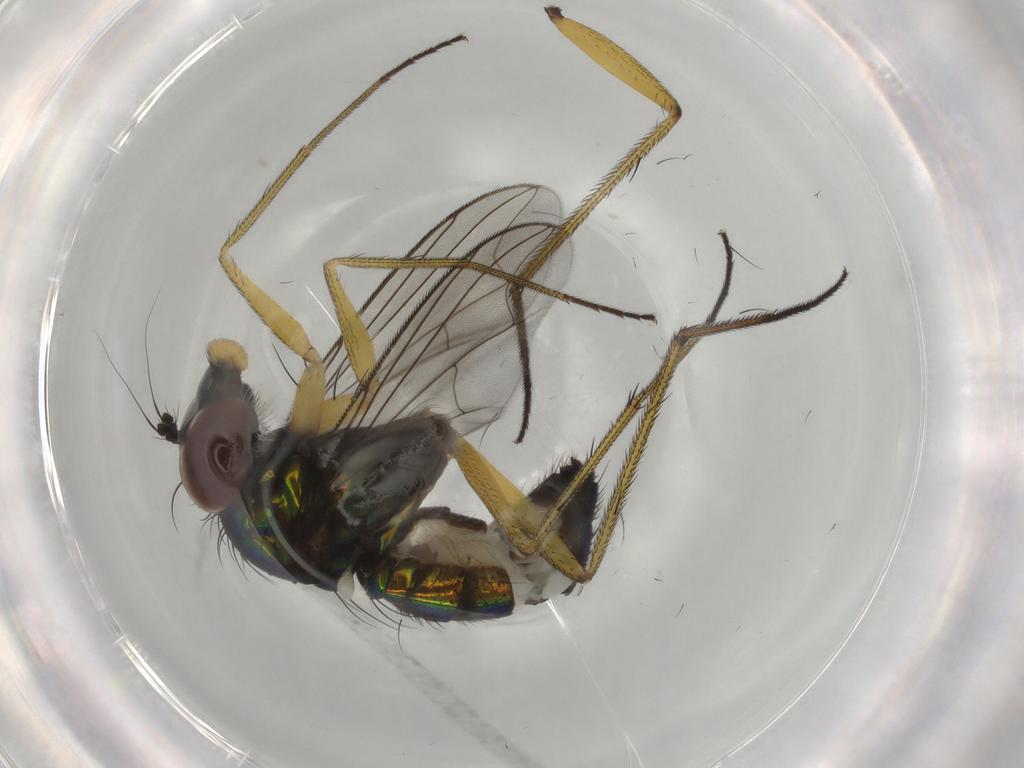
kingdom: Animalia
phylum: Arthropoda
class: Insecta
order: Diptera
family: Dolichopodidae
